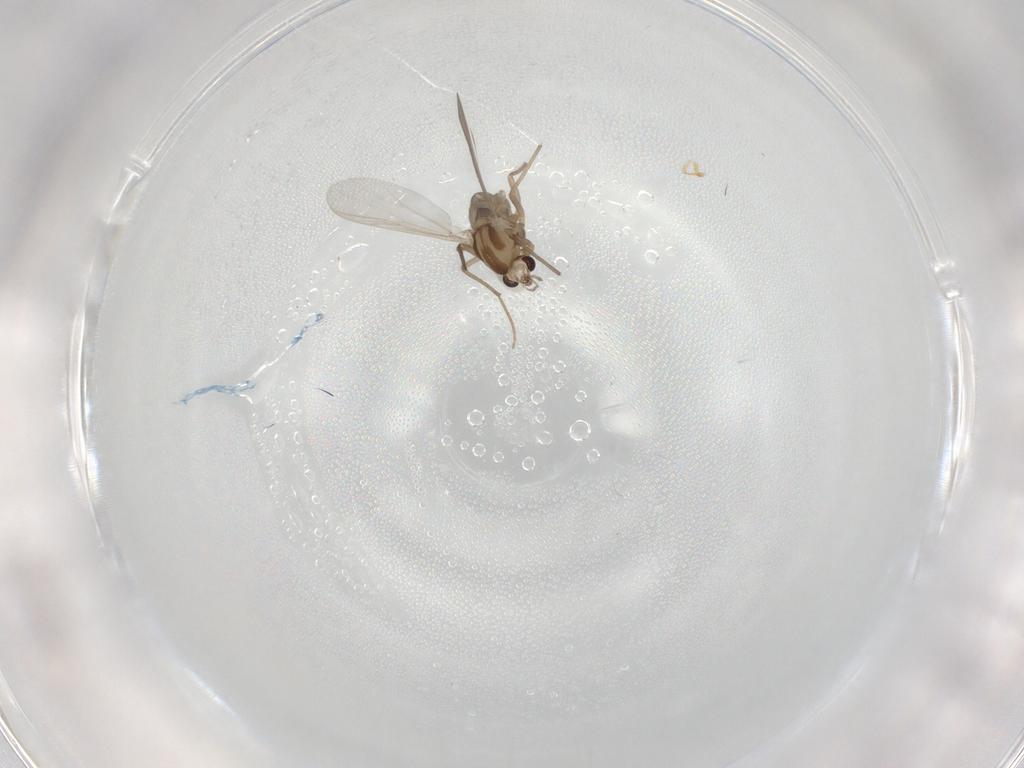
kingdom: Animalia
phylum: Arthropoda
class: Insecta
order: Diptera
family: Chironomidae
